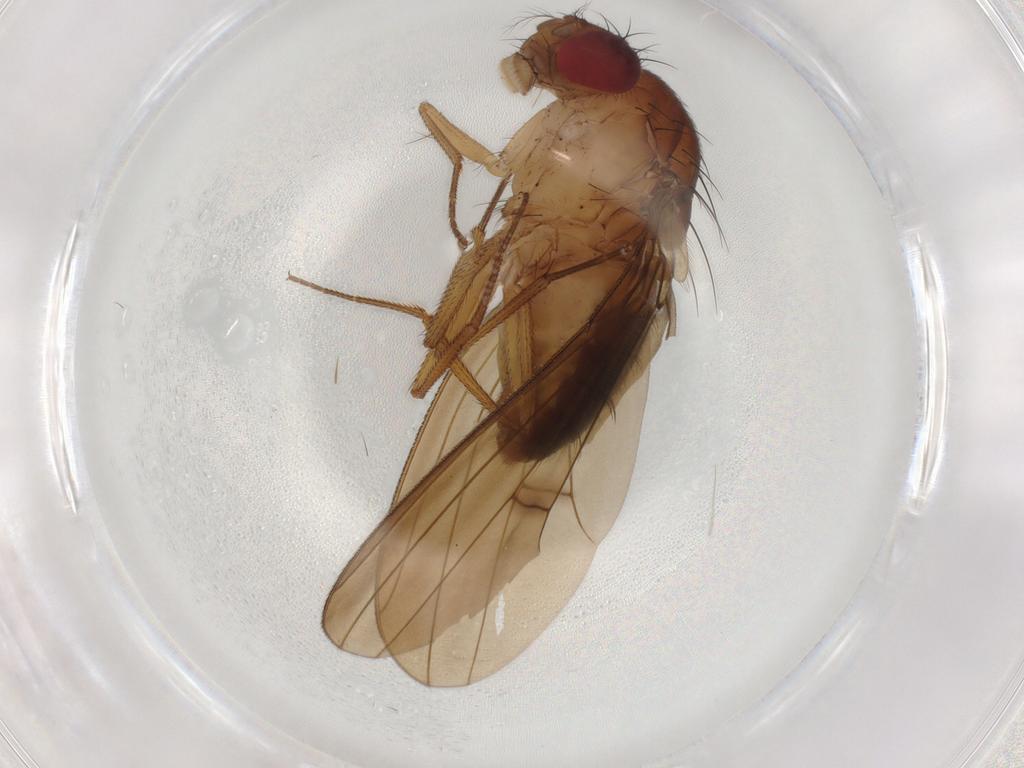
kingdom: Animalia
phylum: Arthropoda
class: Insecta
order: Diptera
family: Drosophilidae
